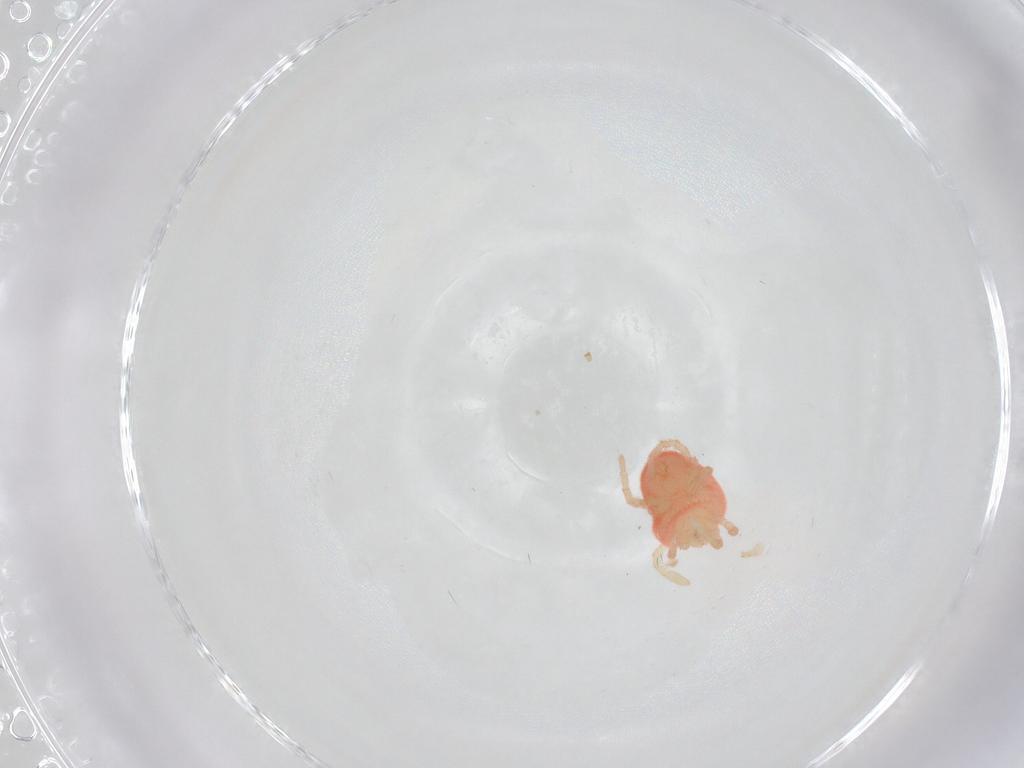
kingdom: Animalia
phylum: Arthropoda
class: Arachnida
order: Trombidiformes
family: Trombidiidae
